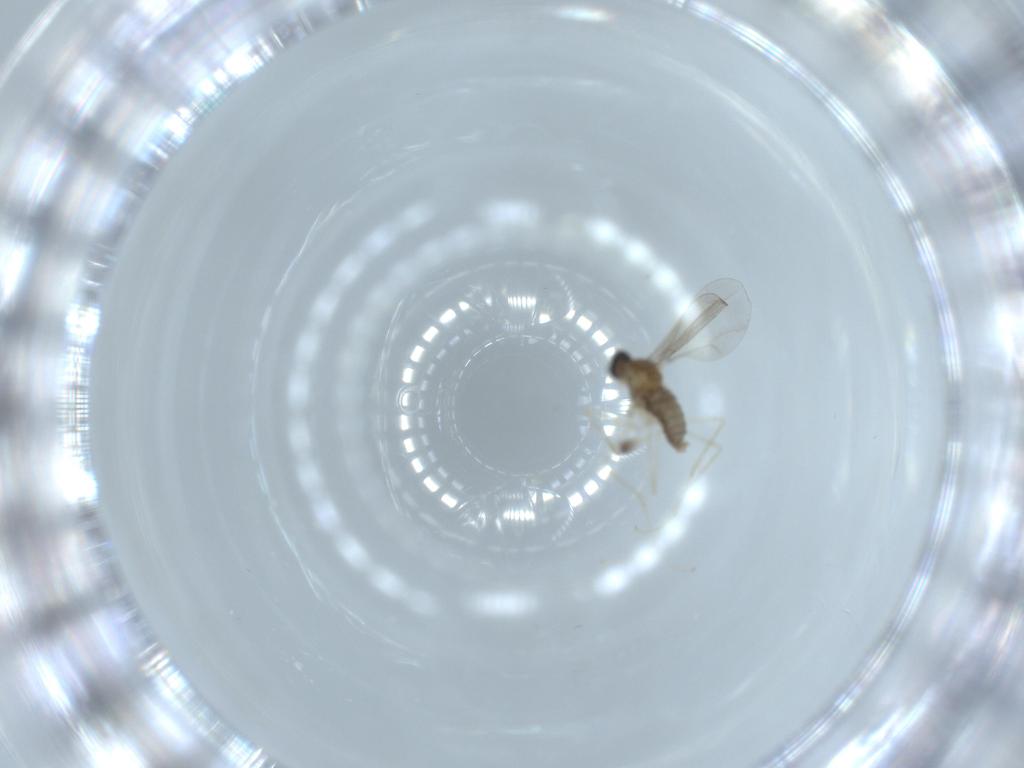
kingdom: Animalia
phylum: Arthropoda
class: Insecta
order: Diptera
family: Cecidomyiidae
